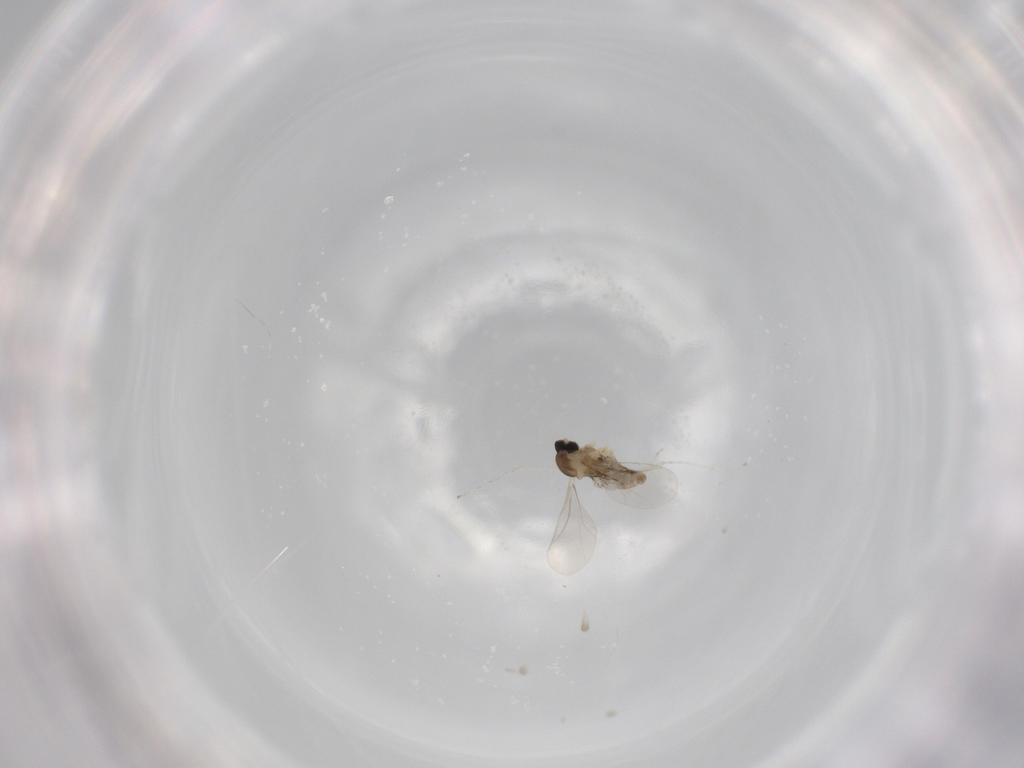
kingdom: Animalia
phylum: Arthropoda
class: Insecta
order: Diptera
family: Cecidomyiidae
